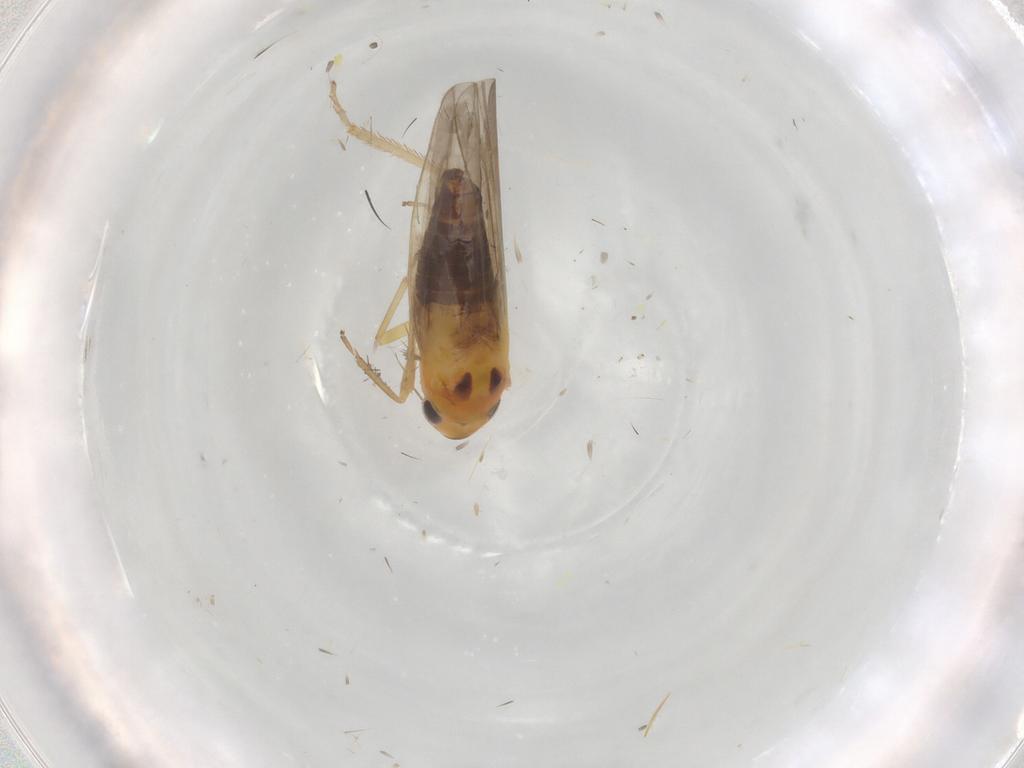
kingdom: Animalia
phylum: Arthropoda
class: Insecta
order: Hemiptera
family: Cicadellidae
